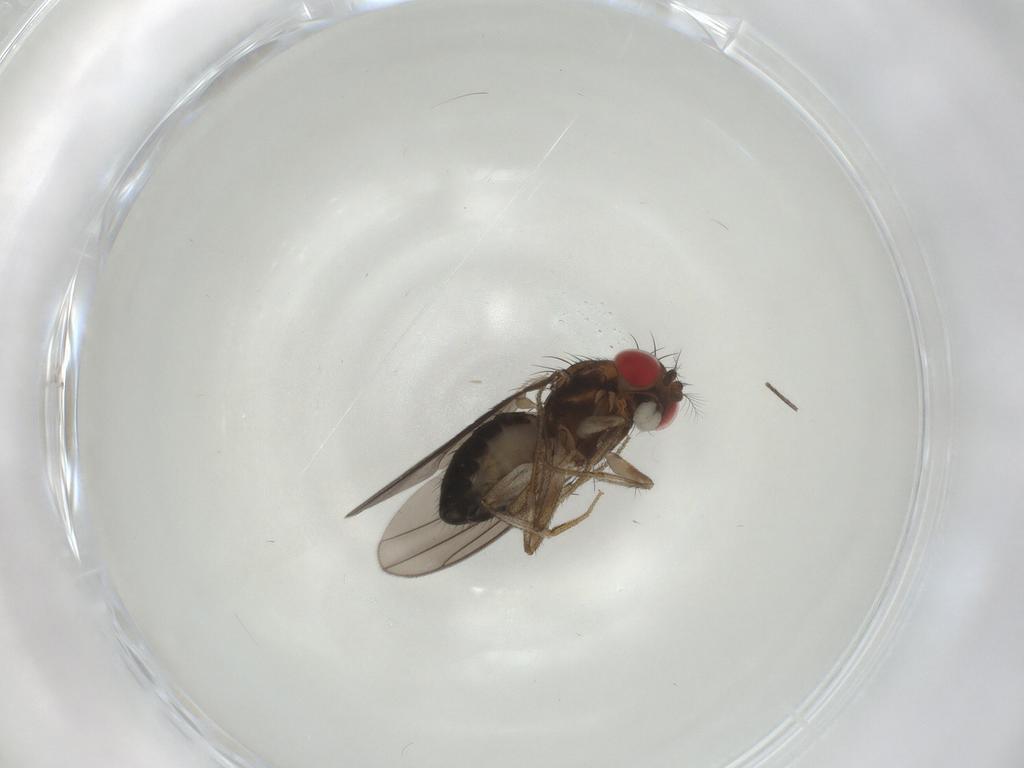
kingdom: Animalia
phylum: Arthropoda
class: Insecta
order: Diptera
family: Drosophilidae
